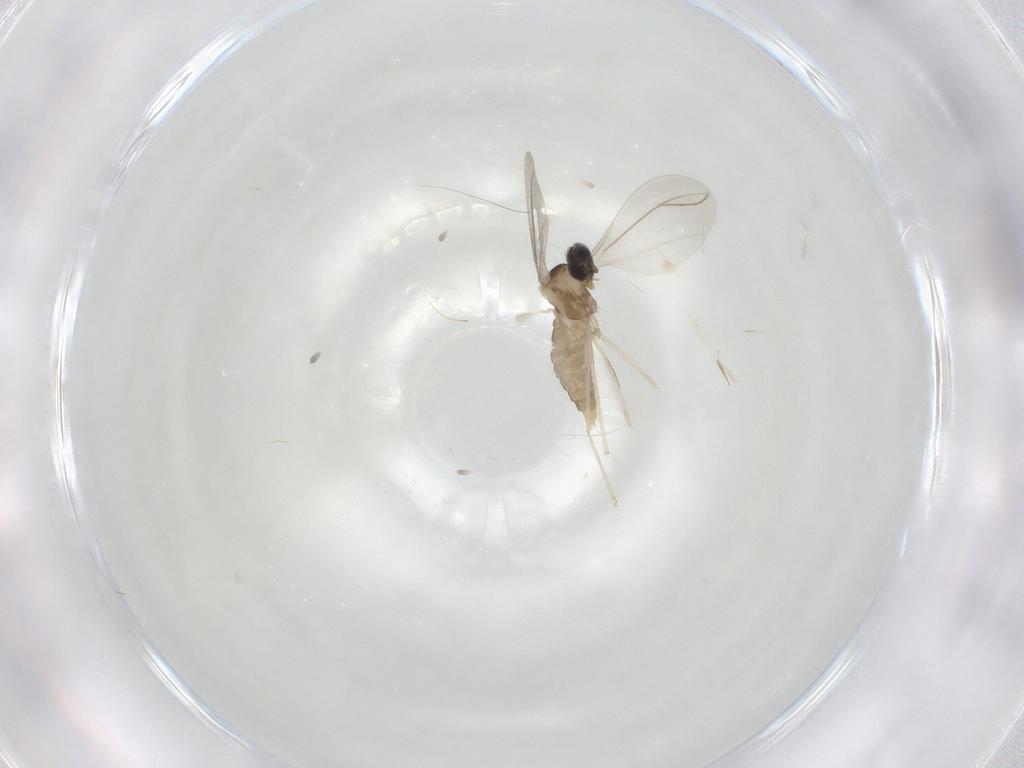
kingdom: Animalia
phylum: Arthropoda
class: Insecta
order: Diptera
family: Cecidomyiidae
